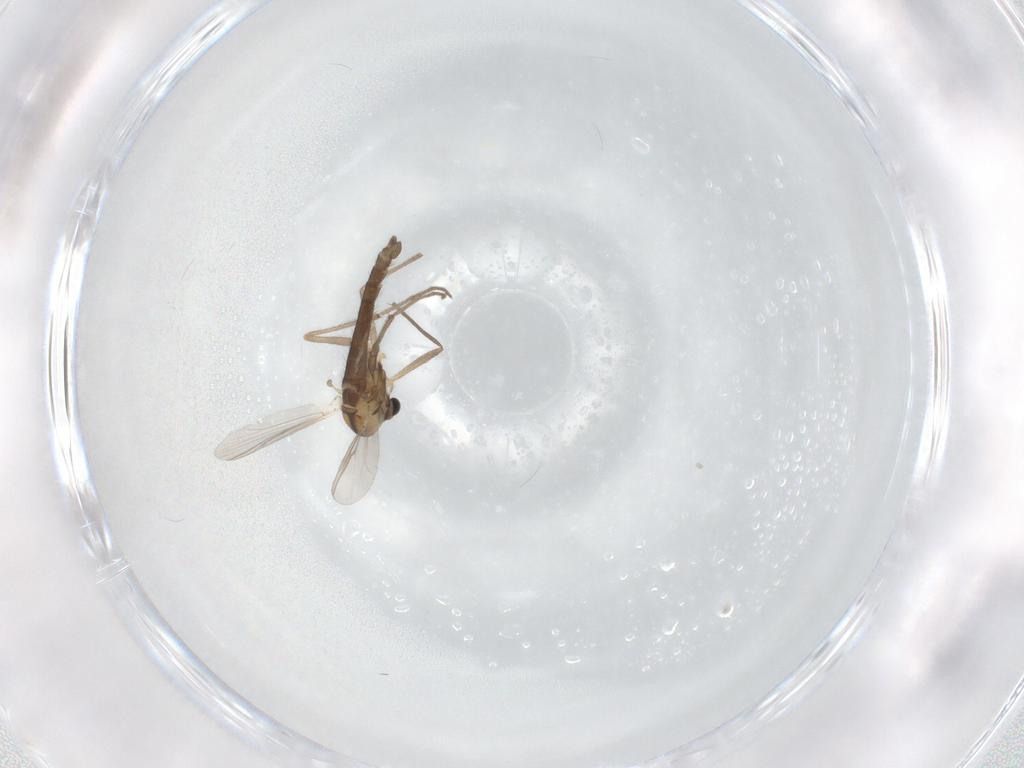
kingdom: Animalia
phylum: Arthropoda
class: Insecta
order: Diptera
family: Chironomidae
